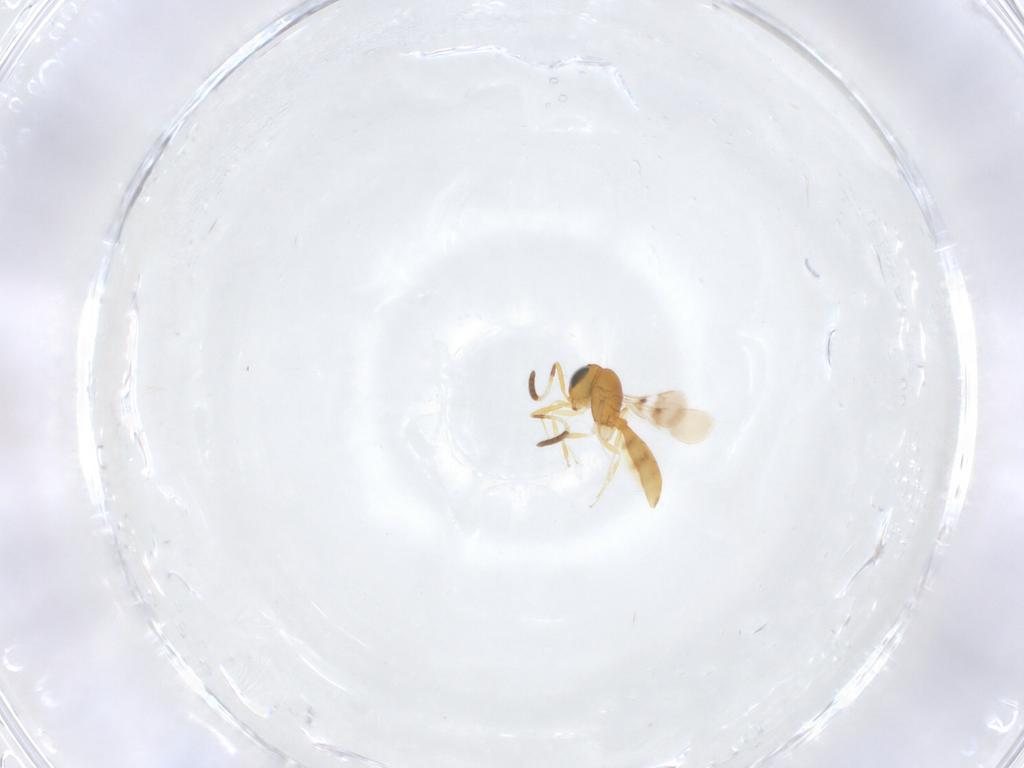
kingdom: Animalia
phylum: Arthropoda
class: Insecta
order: Hymenoptera
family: Scelionidae
